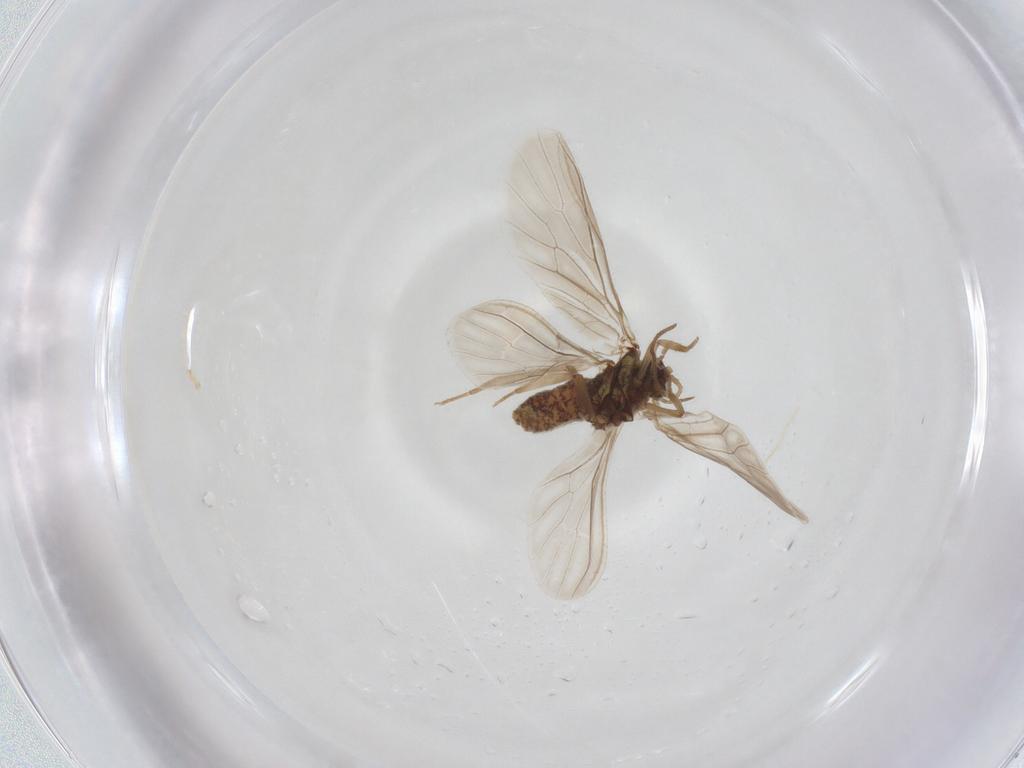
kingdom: Animalia
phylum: Arthropoda
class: Insecta
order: Neuroptera
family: Coniopterygidae
